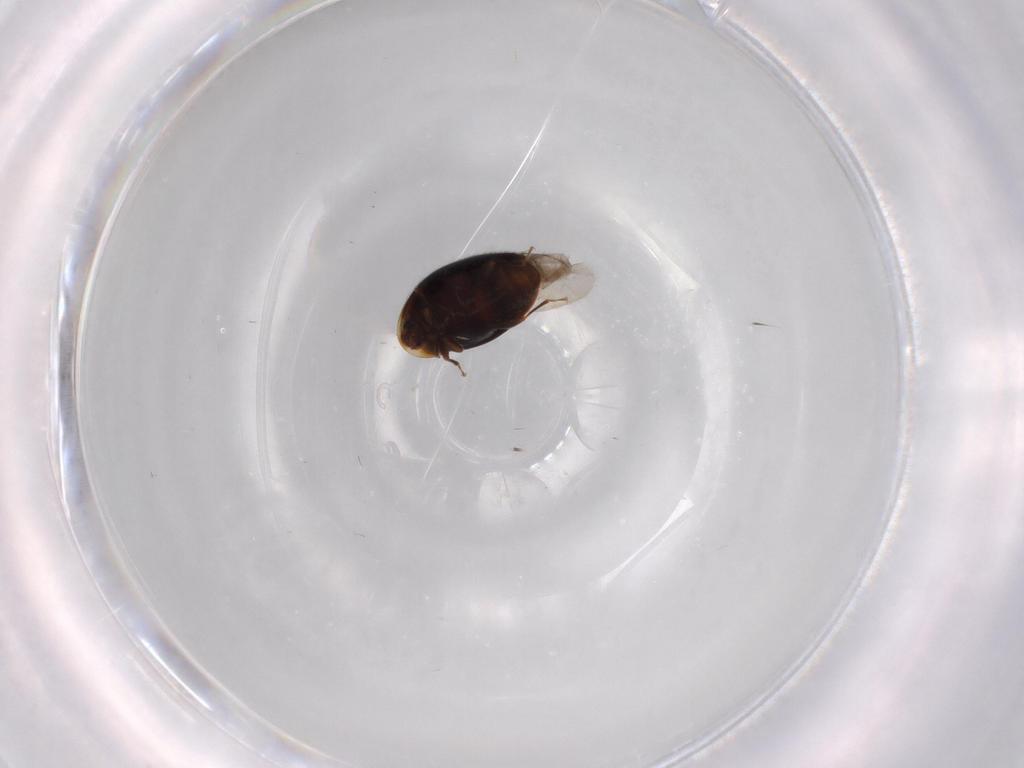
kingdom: Animalia
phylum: Arthropoda
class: Insecta
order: Coleoptera
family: Corylophidae
